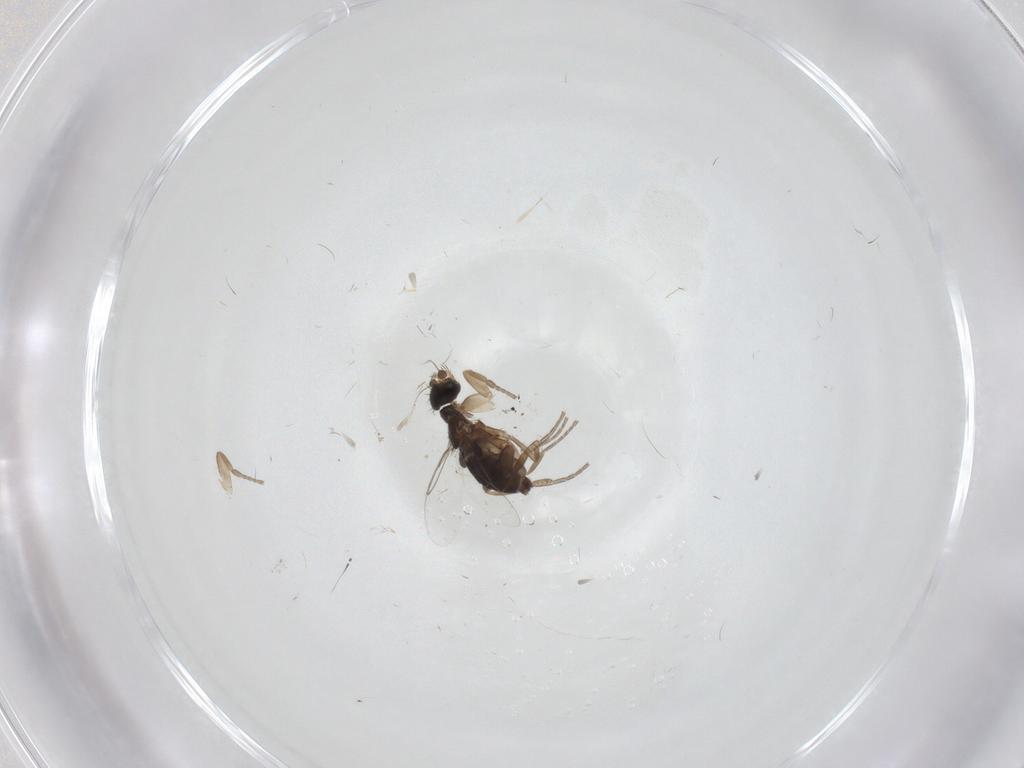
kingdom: Animalia
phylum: Arthropoda
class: Insecta
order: Diptera
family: Phoridae
